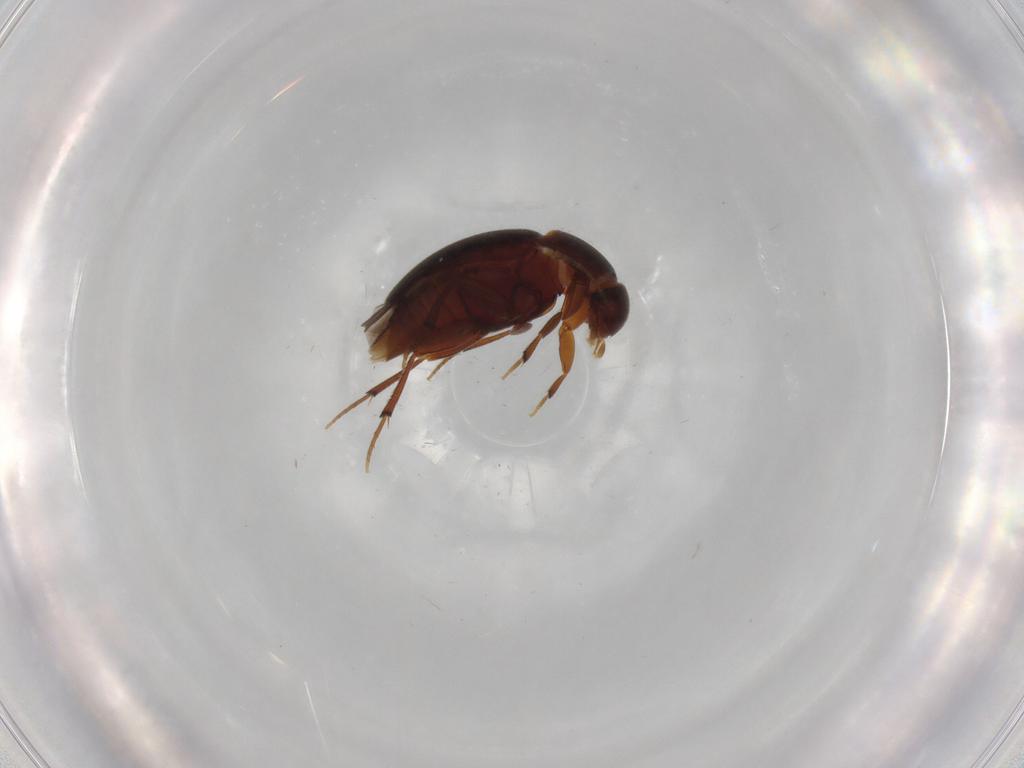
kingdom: Animalia
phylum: Arthropoda
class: Insecta
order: Coleoptera
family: Leiodidae
